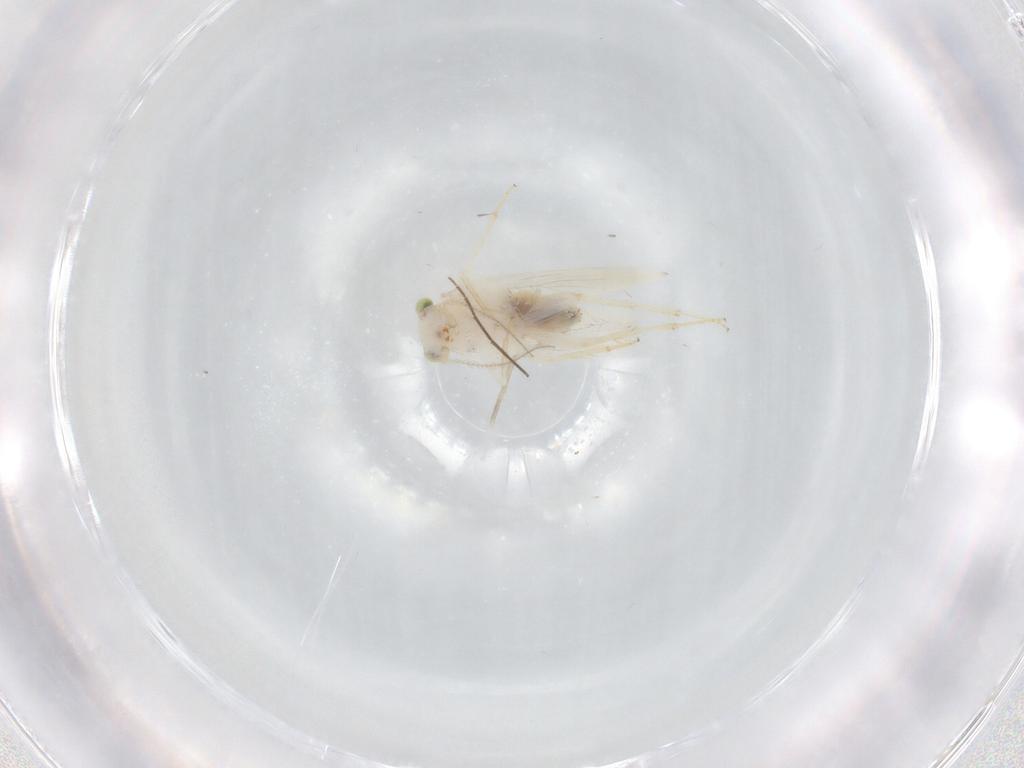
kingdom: Animalia
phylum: Arthropoda
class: Insecta
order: Psocodea
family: Lepidopsocidae
